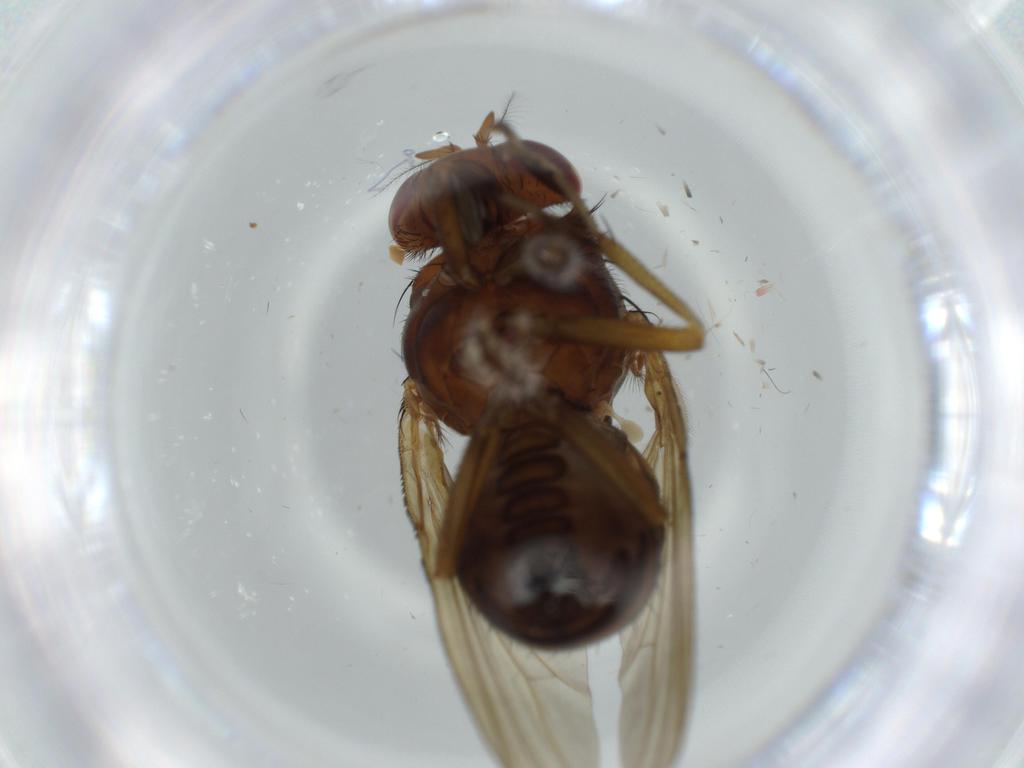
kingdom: Animalia
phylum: Arthropoda
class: Insecta
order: Diptera
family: Lauxaniidae
